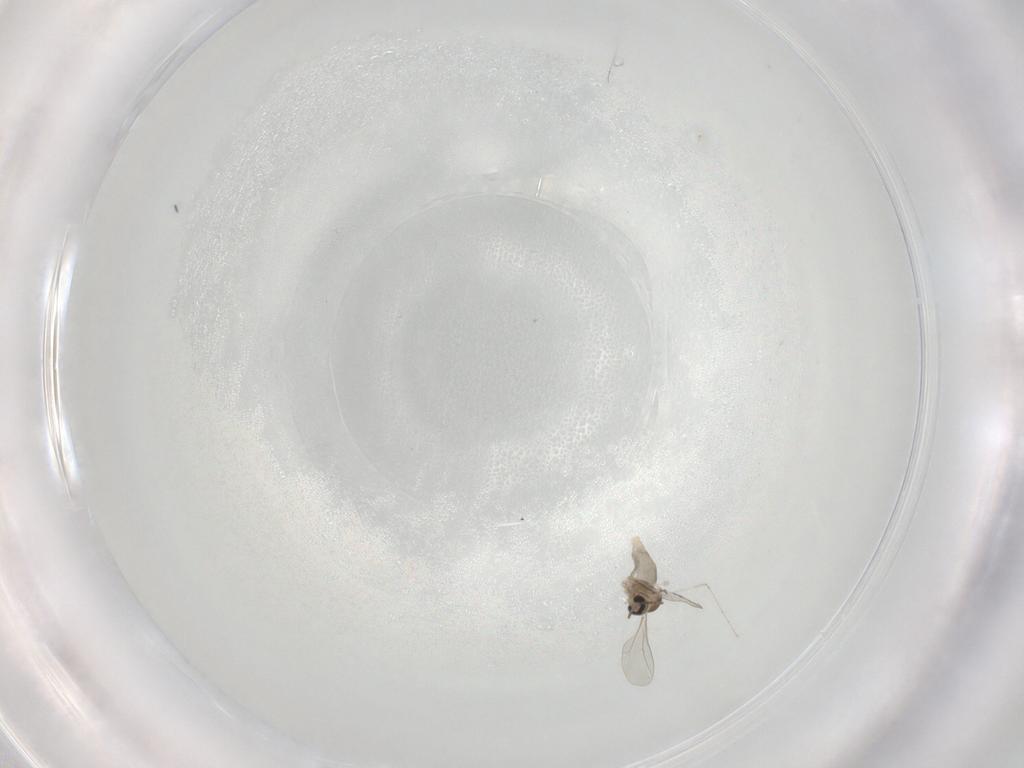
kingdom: Animalia
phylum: Arthropoda
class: Insecta
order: Diptera
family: Cecidomyiidae
